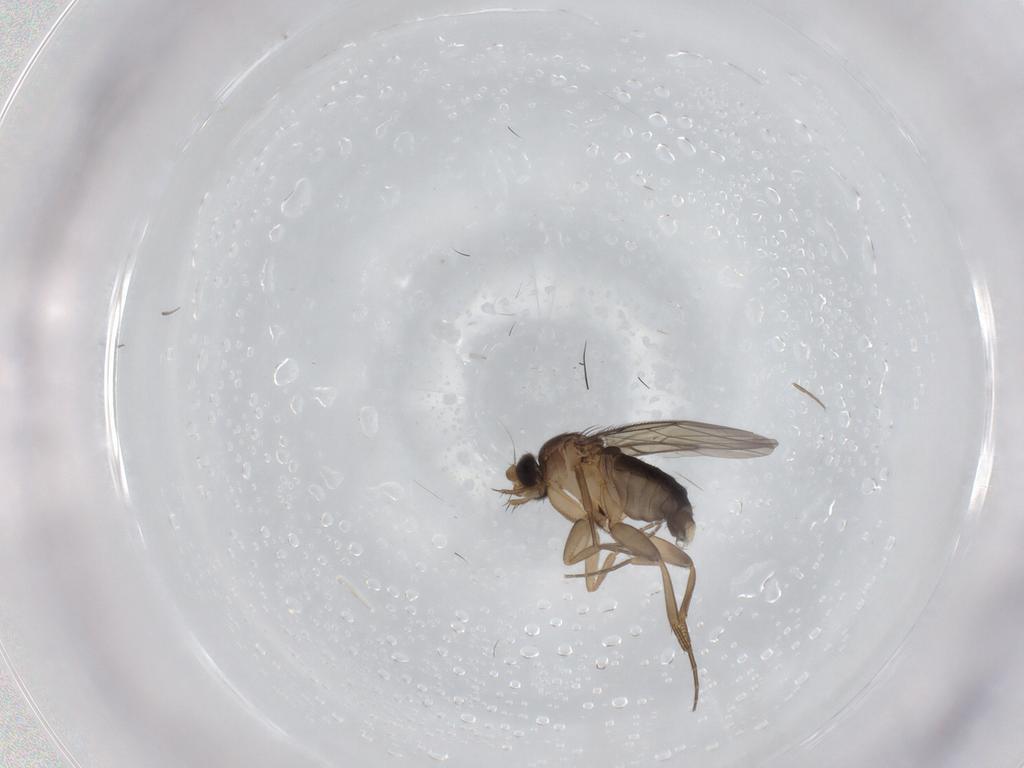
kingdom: Animalia
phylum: Arthropoda
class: Insecta
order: Diptera
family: Phoridae
